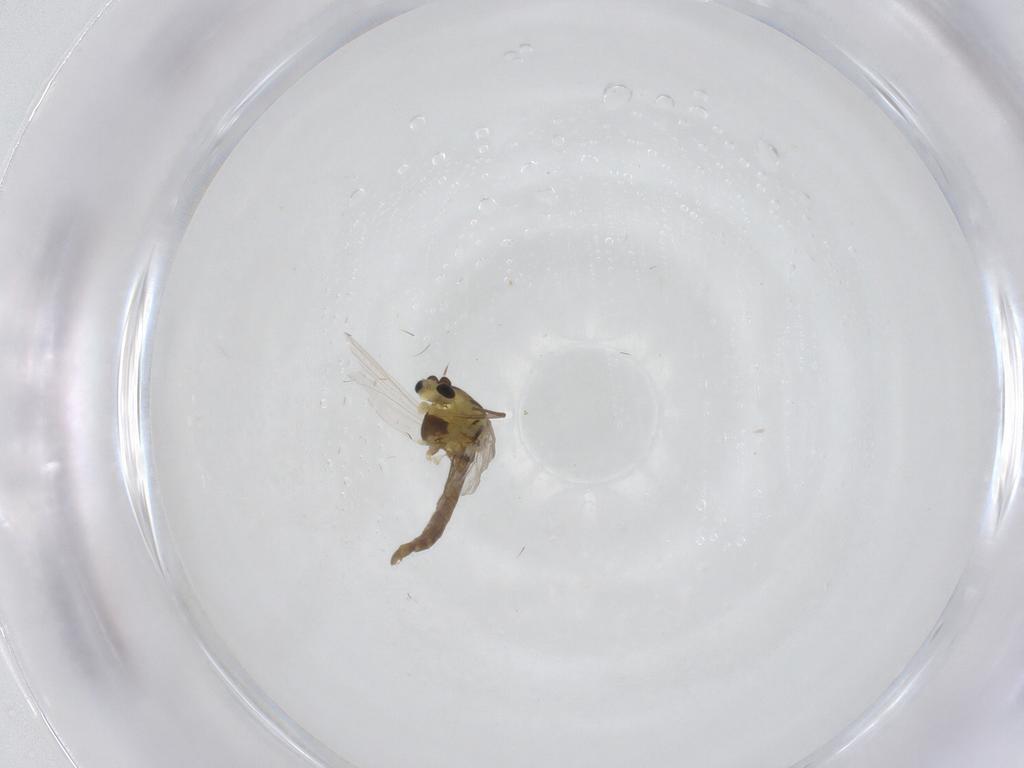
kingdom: Animalia
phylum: Arthropoda
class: Insecta
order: Diptera
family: Chironomidae
